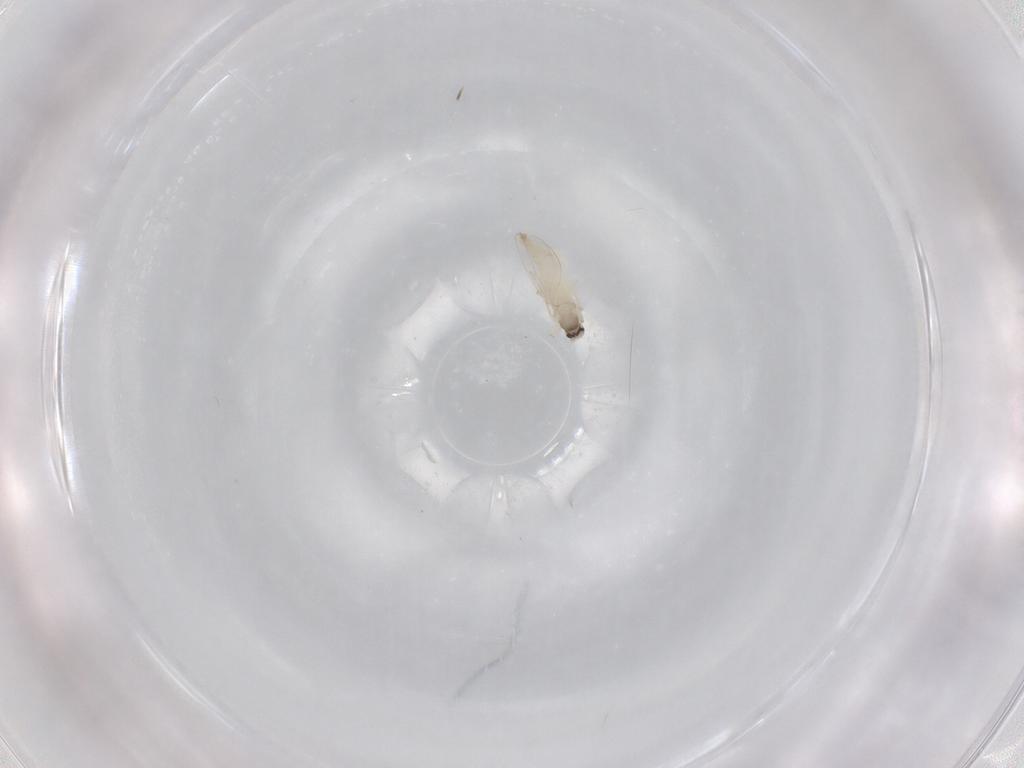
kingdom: Animalia
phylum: Arthropoda
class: Insecta
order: Diptera
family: Cecidomyiidae
